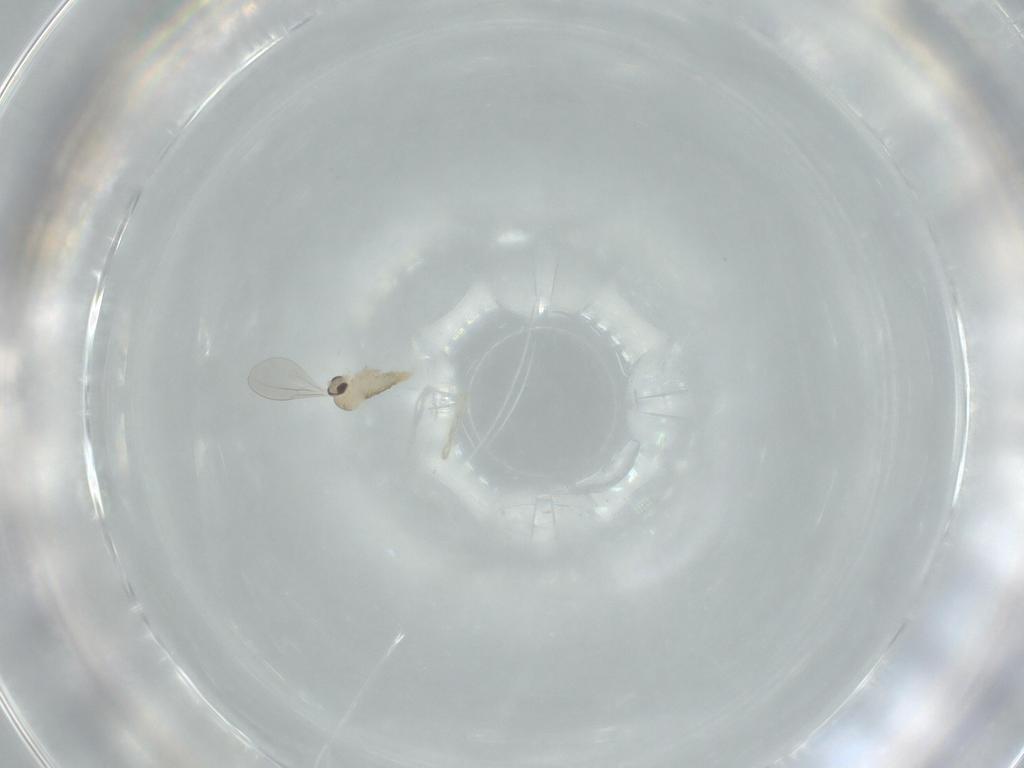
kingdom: Animalia
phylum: Arthropoda
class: Insecta
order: Diptera
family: Cecidomyiidae
